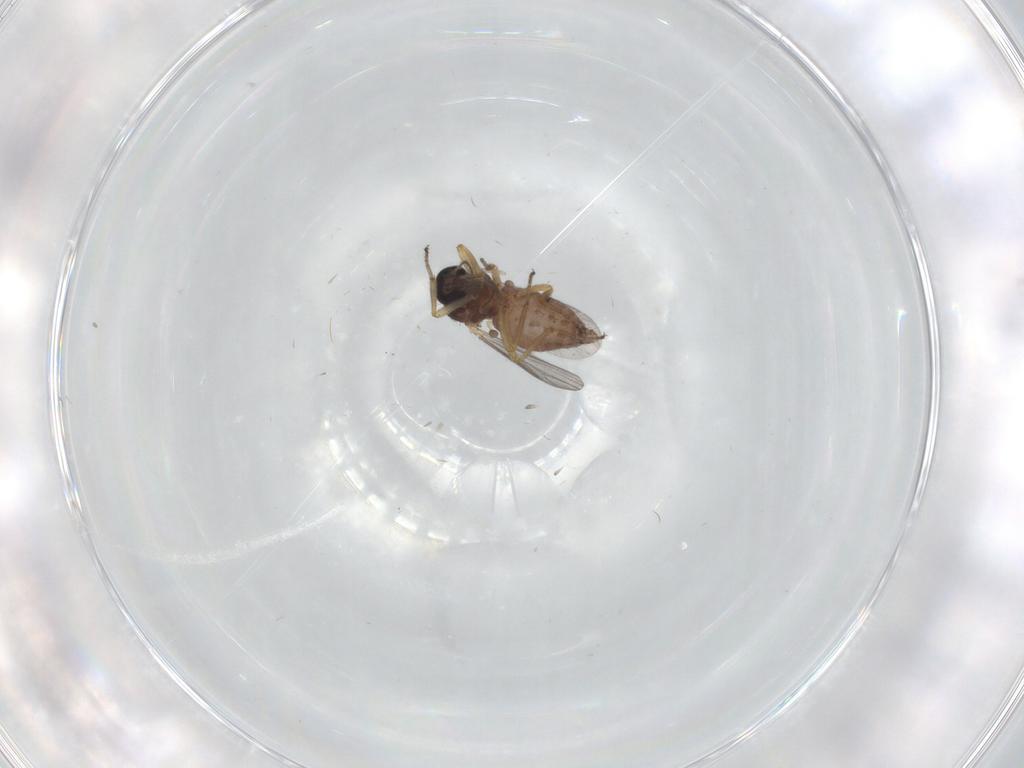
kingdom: Animalia
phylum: Arthropoda
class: Insecta
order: Diptera
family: Ceratopogonidae
